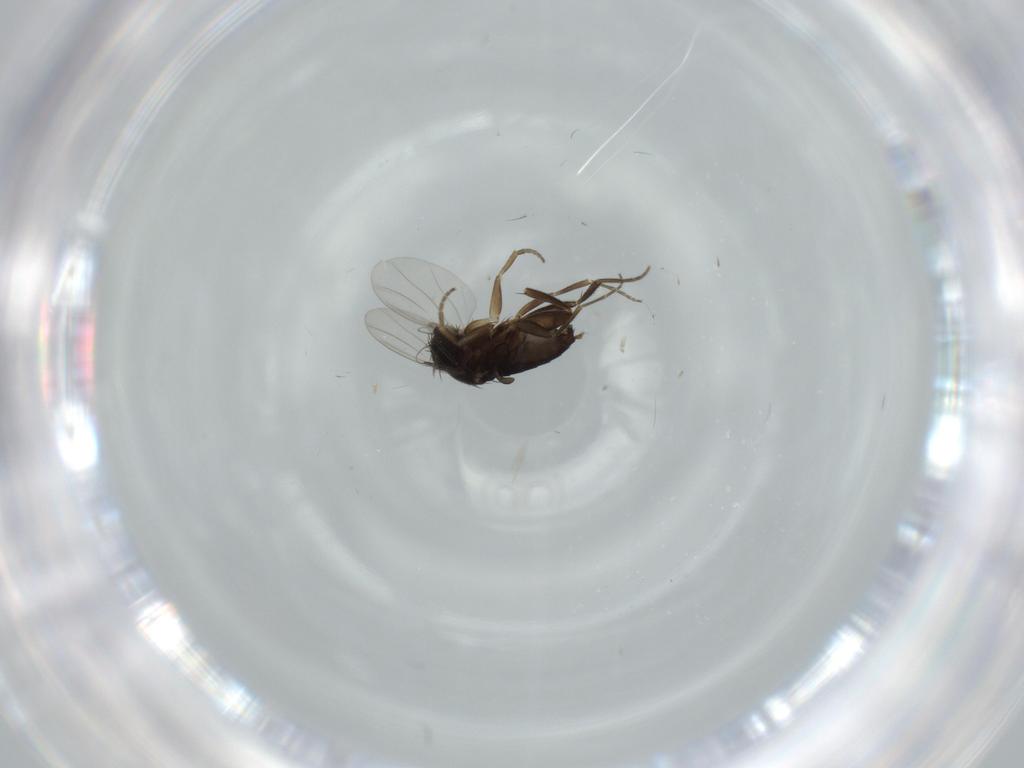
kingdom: Animalia
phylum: Arthropoda
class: Insecta
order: Diptera
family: Phoridae
